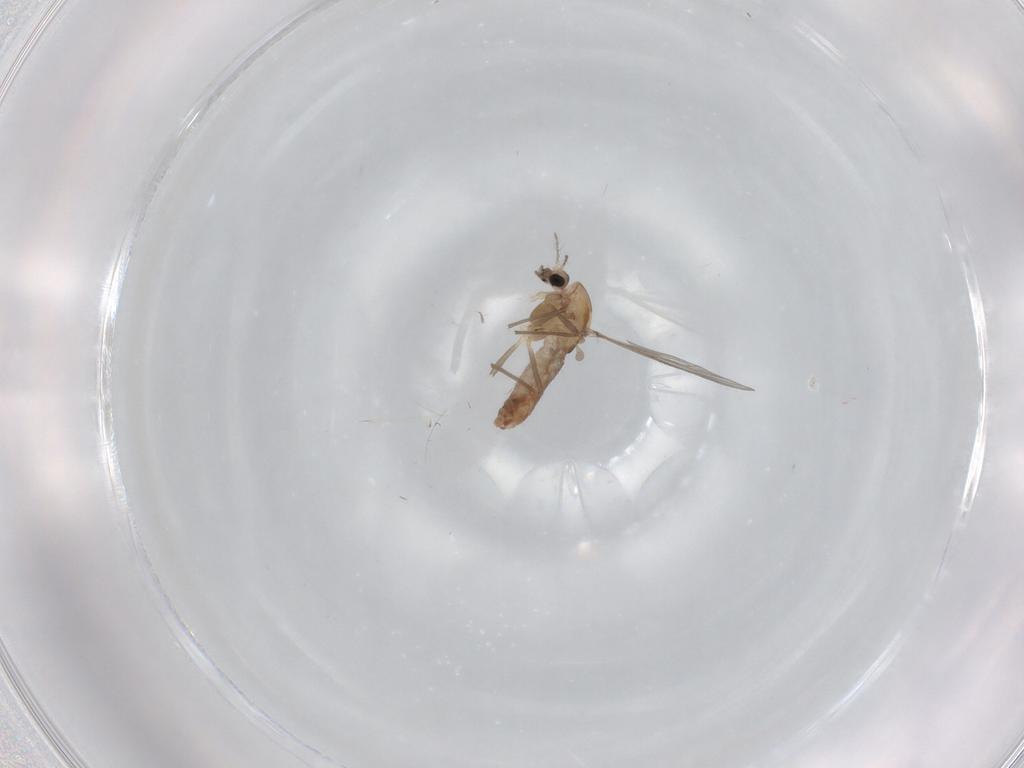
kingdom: Animalia
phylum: Arthropoda
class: Insecta
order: Diptera
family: Chironomidae
